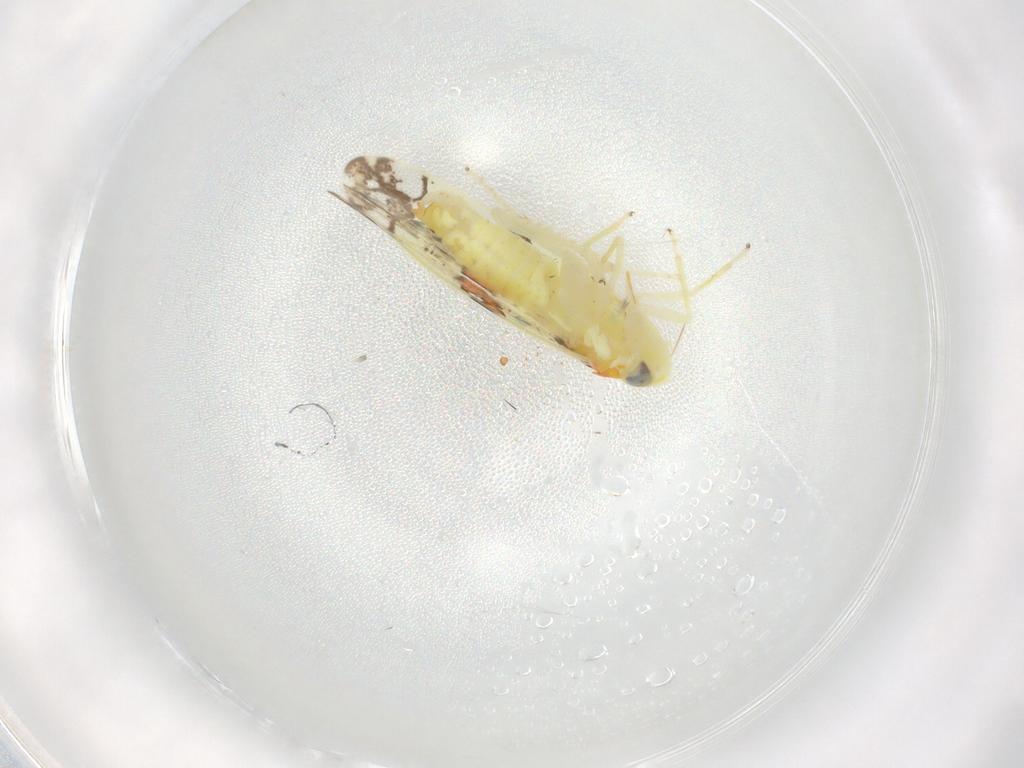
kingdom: Animalia
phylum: Arthropoda
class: Insecta
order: Hemiptera
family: Cicadellidae
